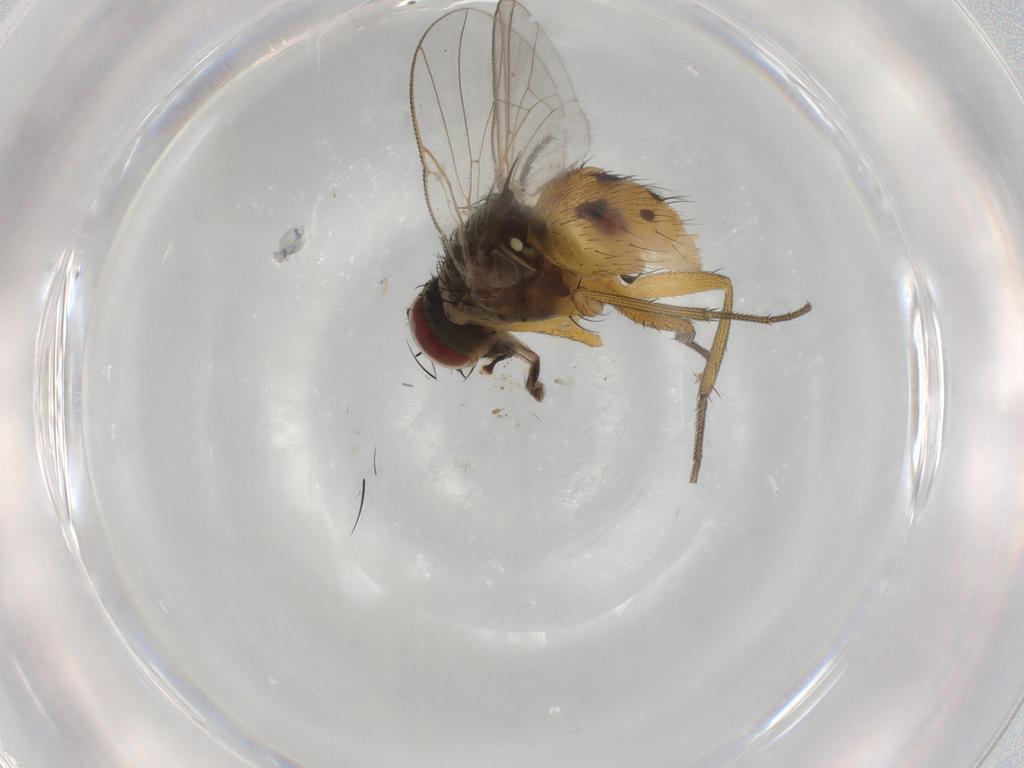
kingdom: Animalia
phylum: Arthropoda
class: Insecta
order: Diptera
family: Muscidae
